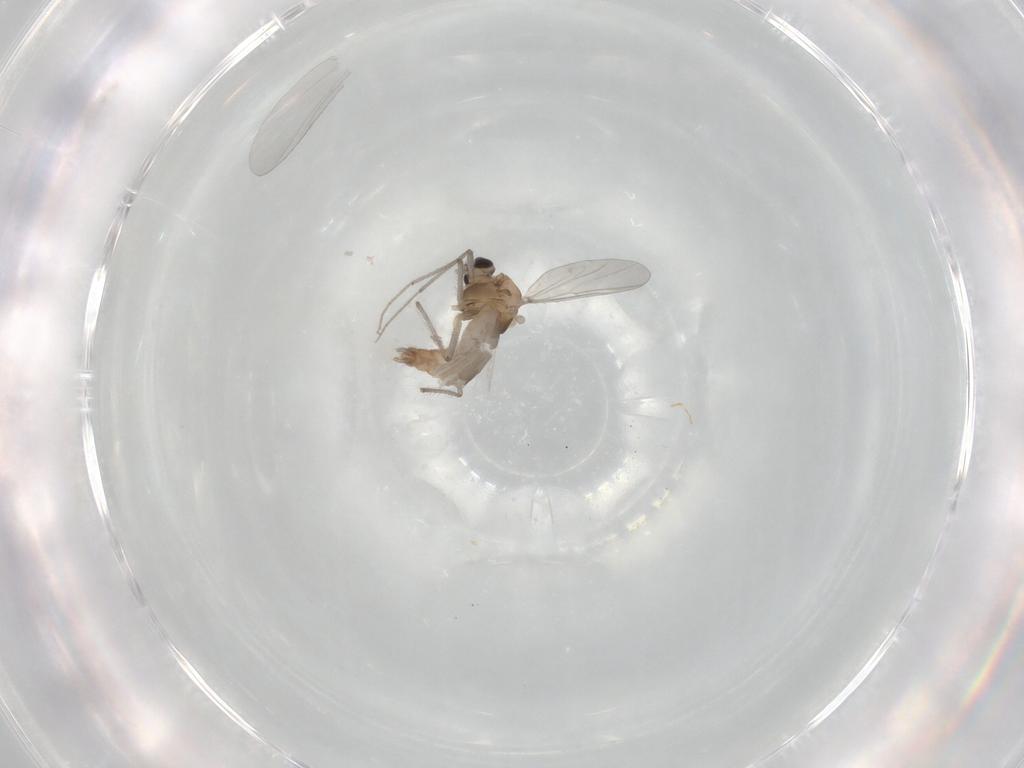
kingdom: Animalia
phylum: Arthropoda
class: Insecta
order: Diptera
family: Chironomidae
